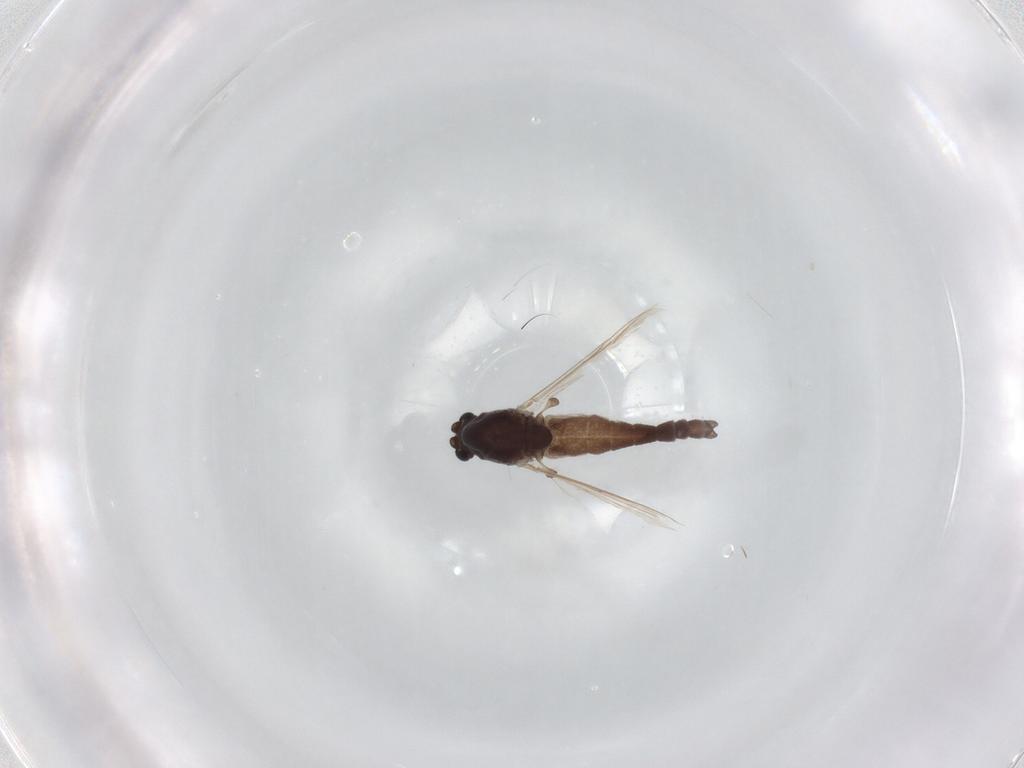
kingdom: Animalia
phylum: Arthropoda
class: Insecta
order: Diptera
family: Chironomidae
